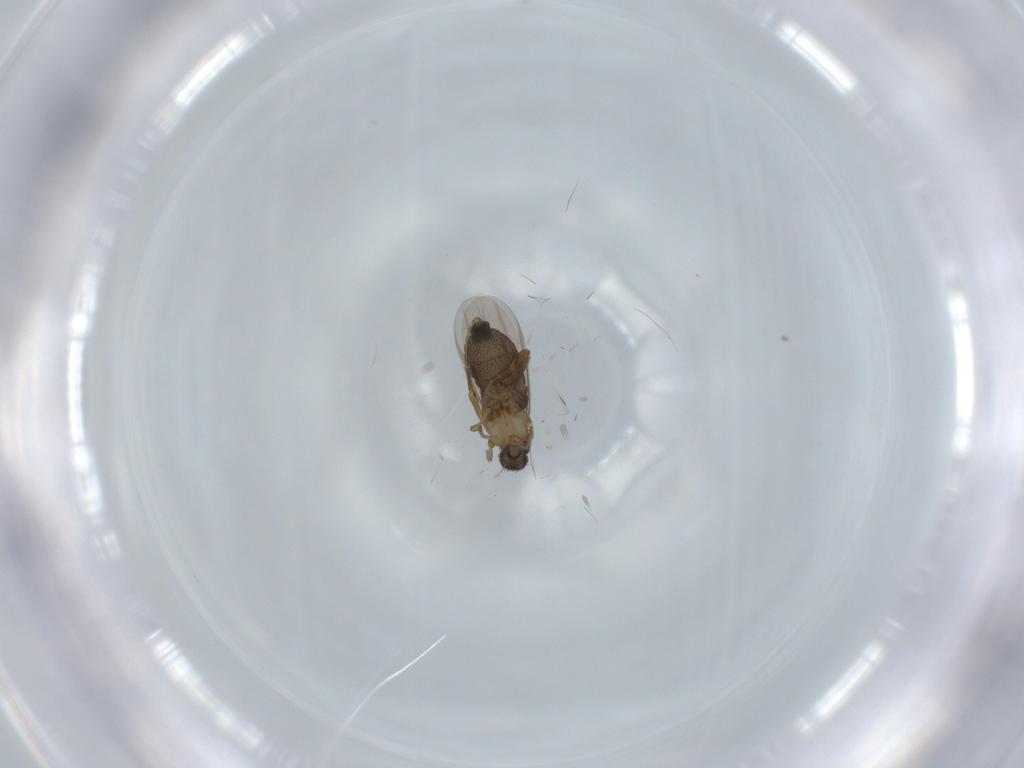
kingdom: Animalia
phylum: Arthropoda
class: Insecta
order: Diptera
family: Phoridae
